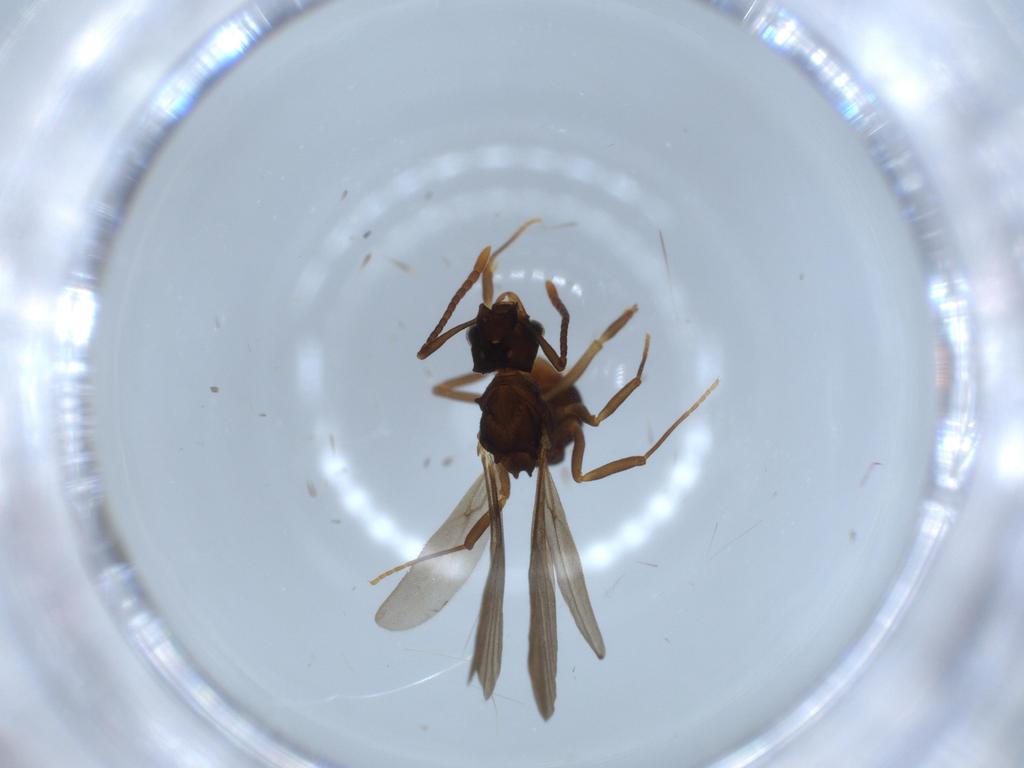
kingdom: Animalia
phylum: Arthropoda
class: Insecta
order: Hymenoptera
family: Formicidae
